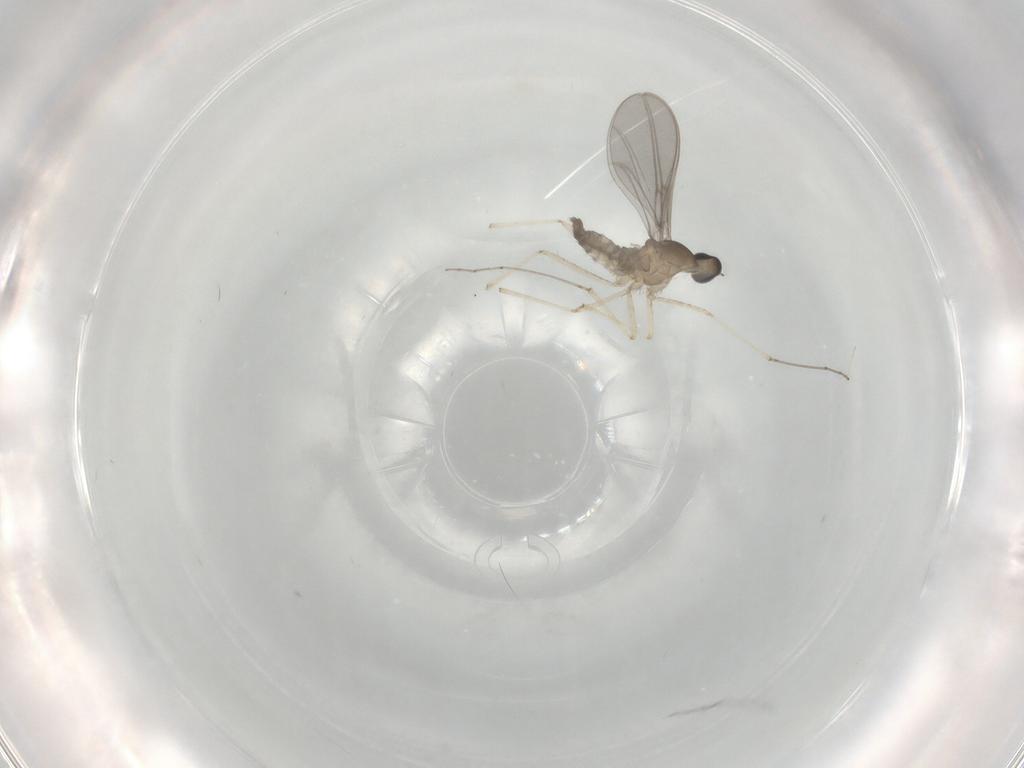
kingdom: Animalia
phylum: Arthropoda
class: Insecta
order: Diptera
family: Cecidomyiidae
